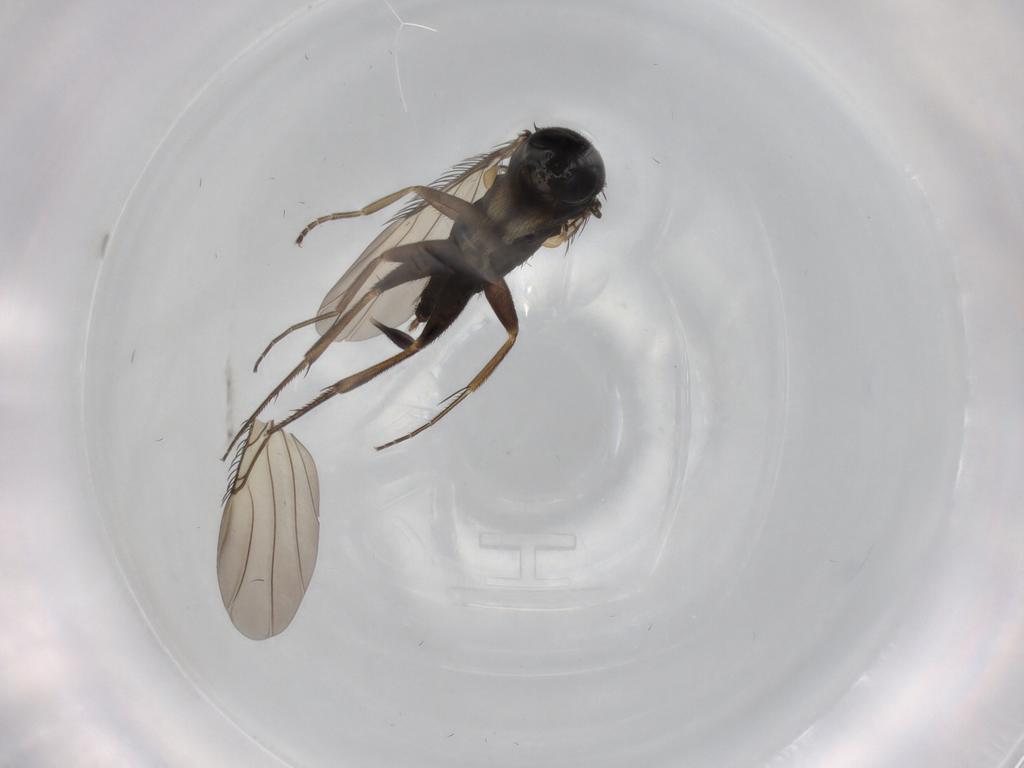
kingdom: Animalia
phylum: Arthropoda
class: Insecta
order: Diptera
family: Phoridae
